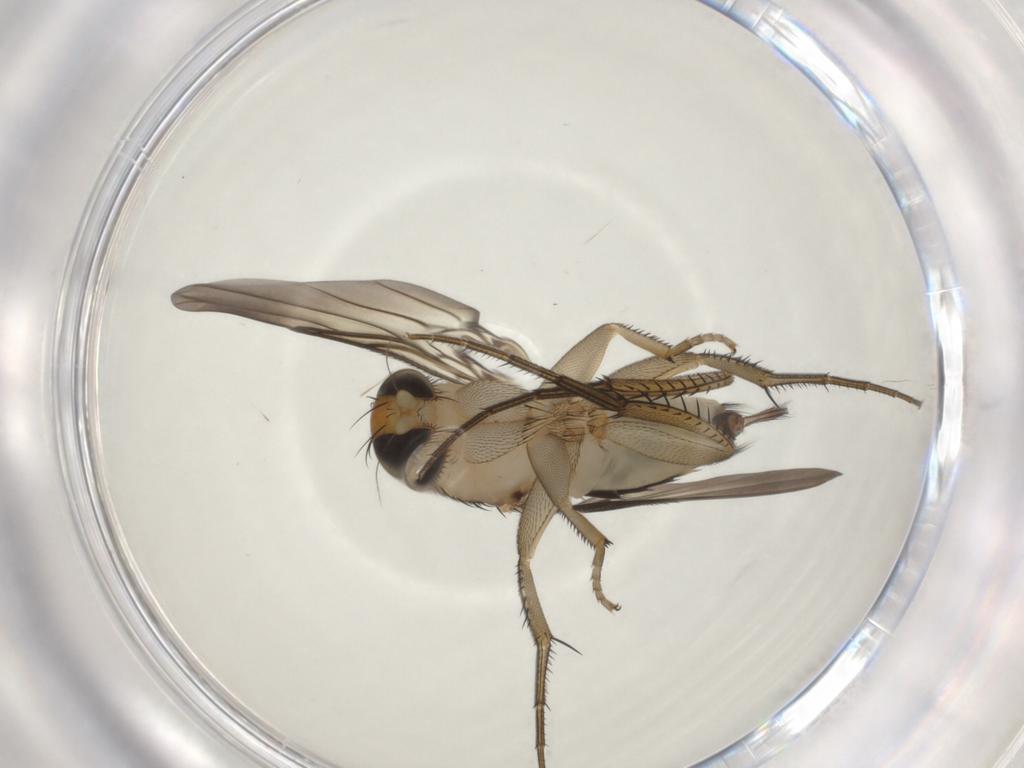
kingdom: Animalia
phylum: Arthropoda
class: Insecta
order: Diptera
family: Phoridae
